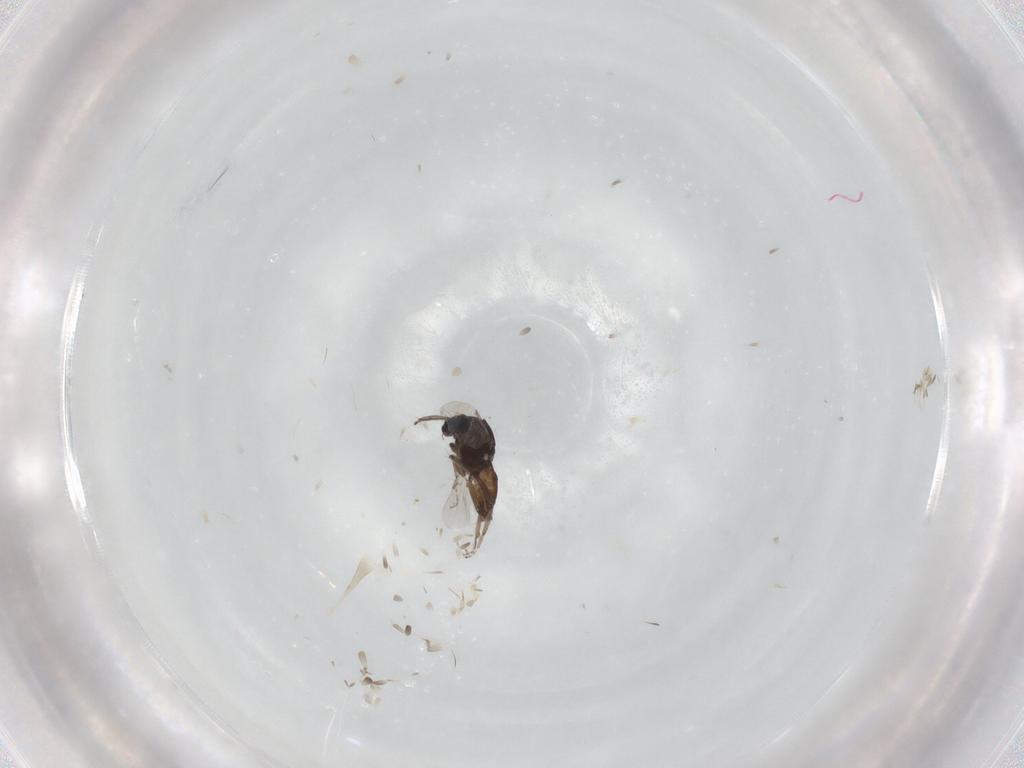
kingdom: Animalia
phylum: Arthropoda
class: Insecta
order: Diptera
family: Ceratopogonidae
